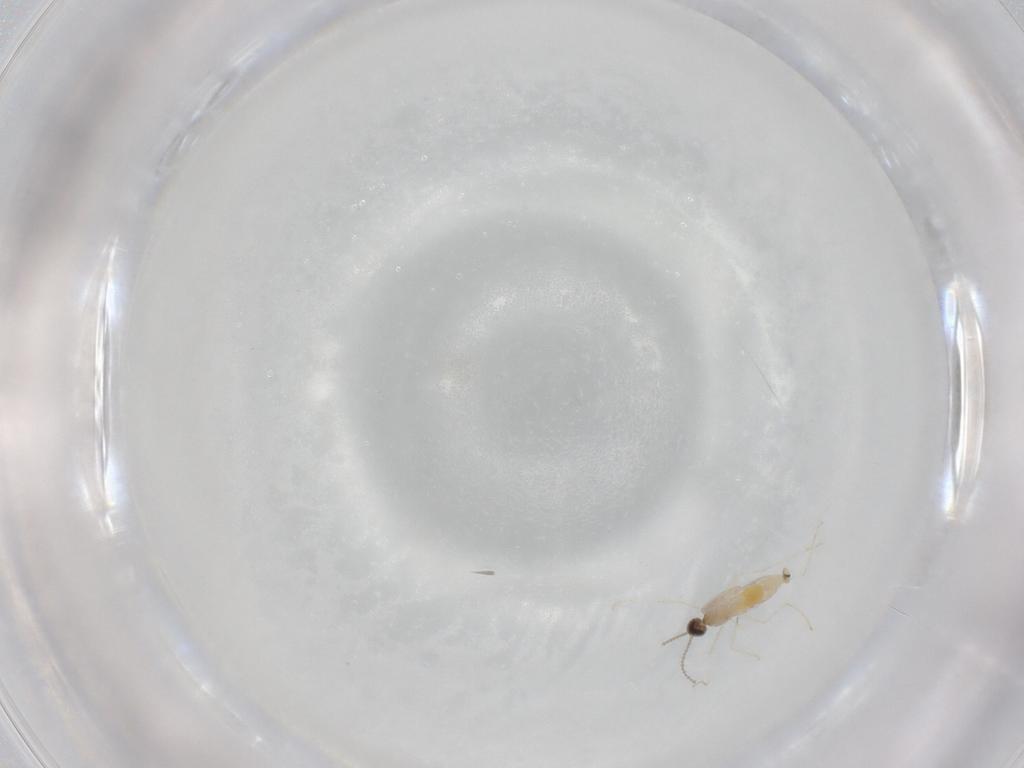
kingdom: Animalia
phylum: Arthropoda
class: Insecta
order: Diptera
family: Cecidomyiidae
